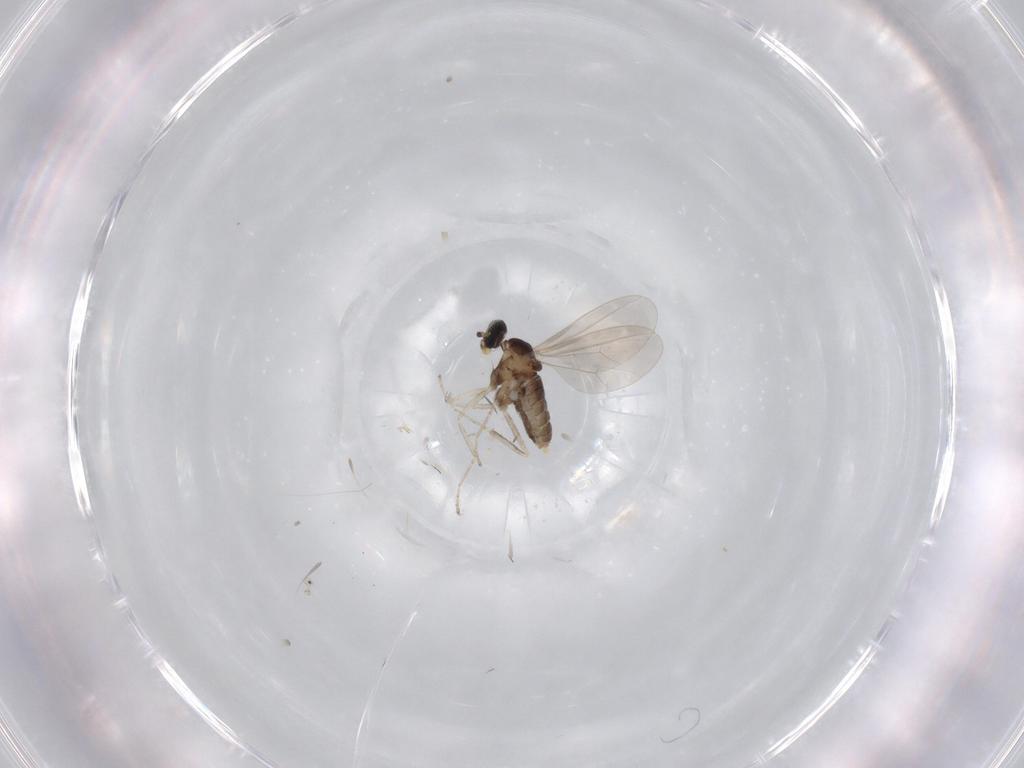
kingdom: Animalia
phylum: Arthropoda
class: Insecta
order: Diptera
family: Cecidomyiidae
